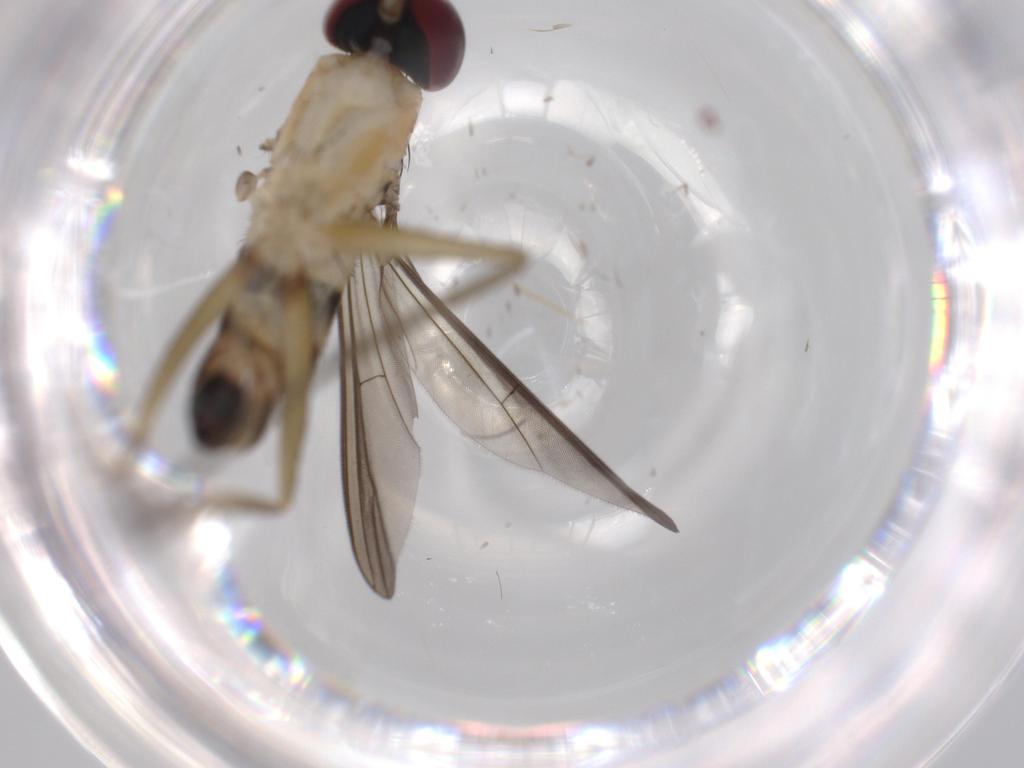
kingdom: Animalia
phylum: Arthropoda
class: Insecta
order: Diptera
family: Dolichopodidae
